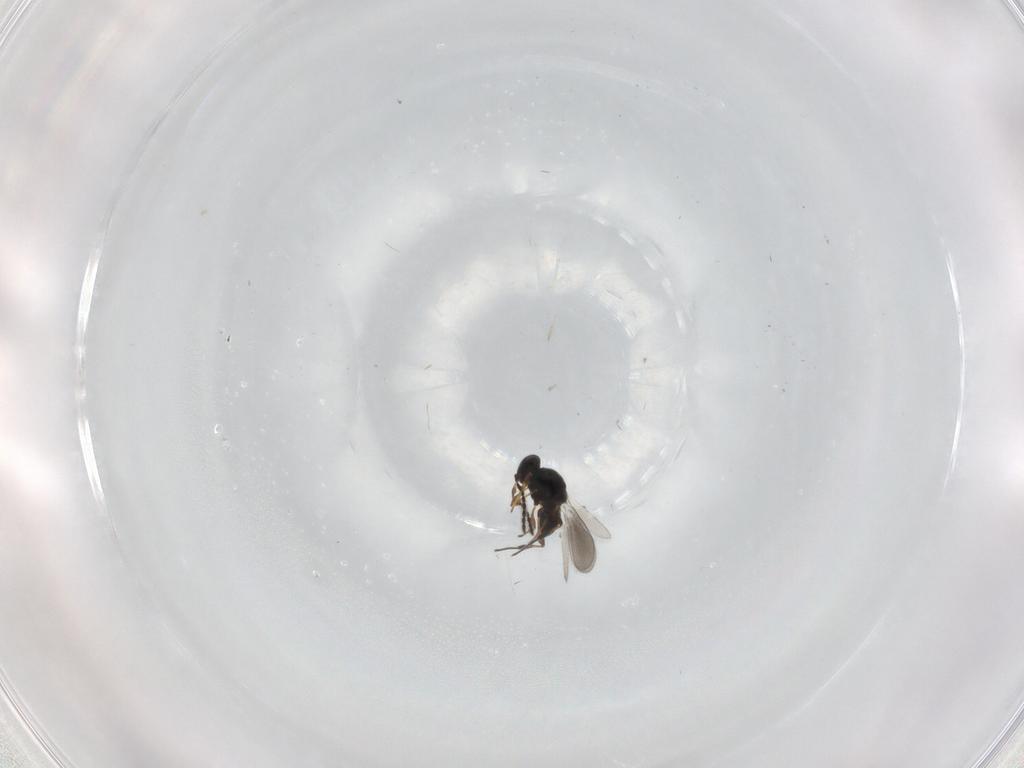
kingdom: Animalia
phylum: Arthropoda
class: Insecta
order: Hymenoptera
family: Platygastridae
